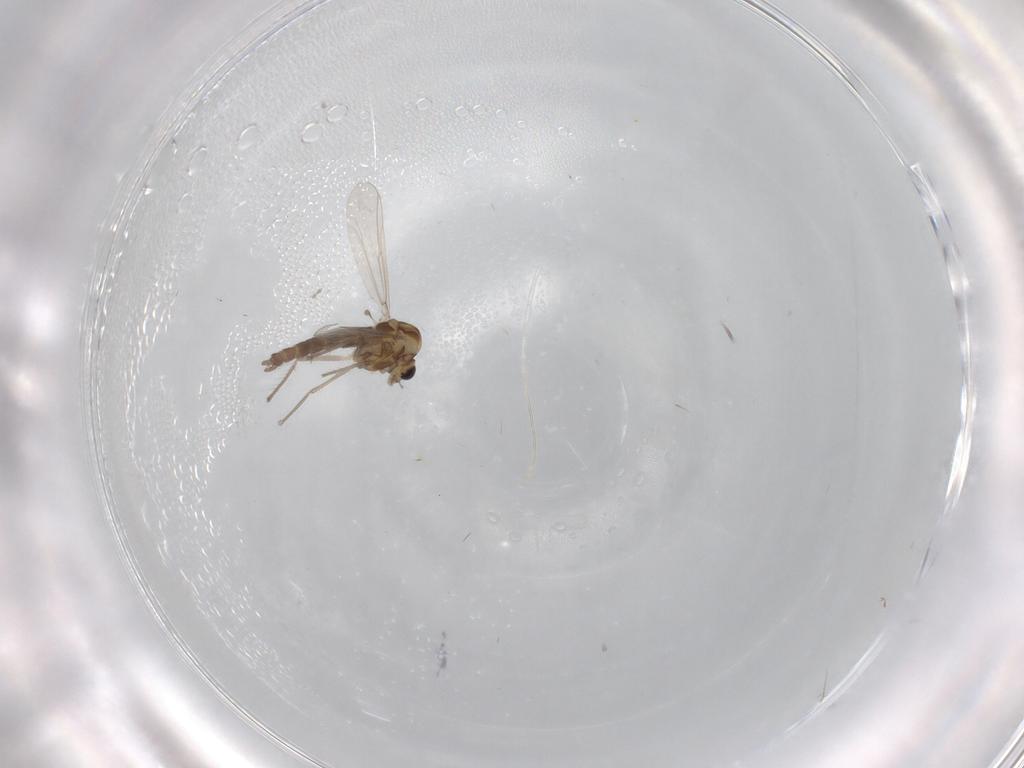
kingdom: Animalia
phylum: Arthropoda
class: Insecta
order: Diptera
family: Chironomidae
